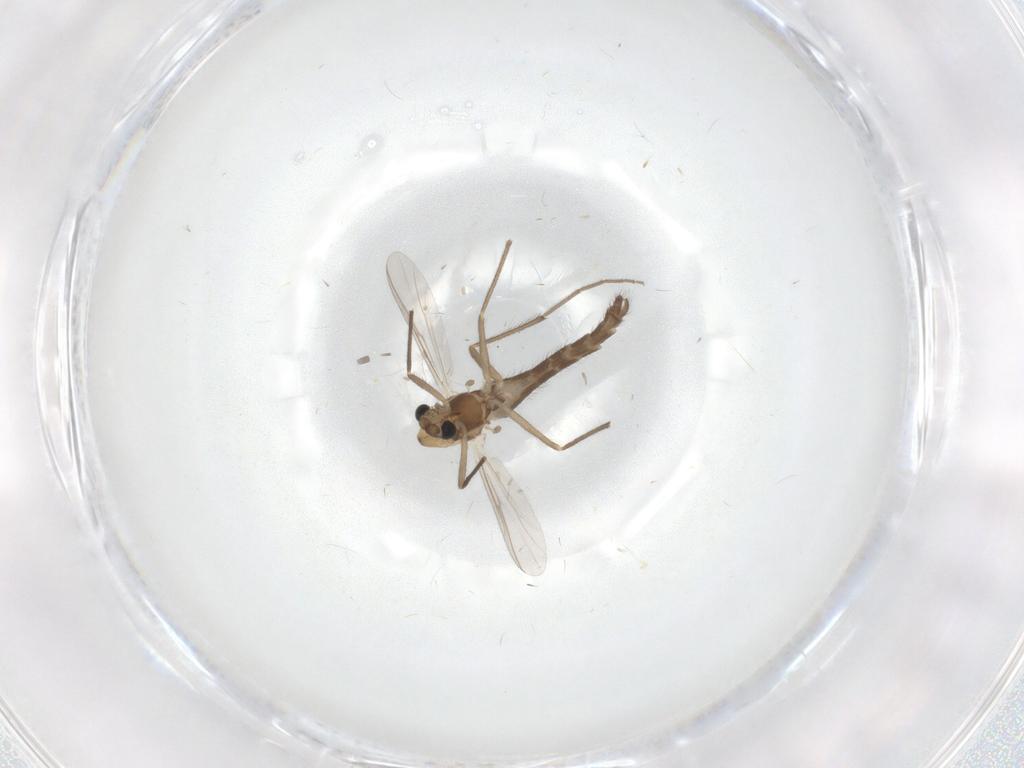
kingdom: Animalia
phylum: Arthropoda
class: Insecta
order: Diptera
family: Chironomidae
